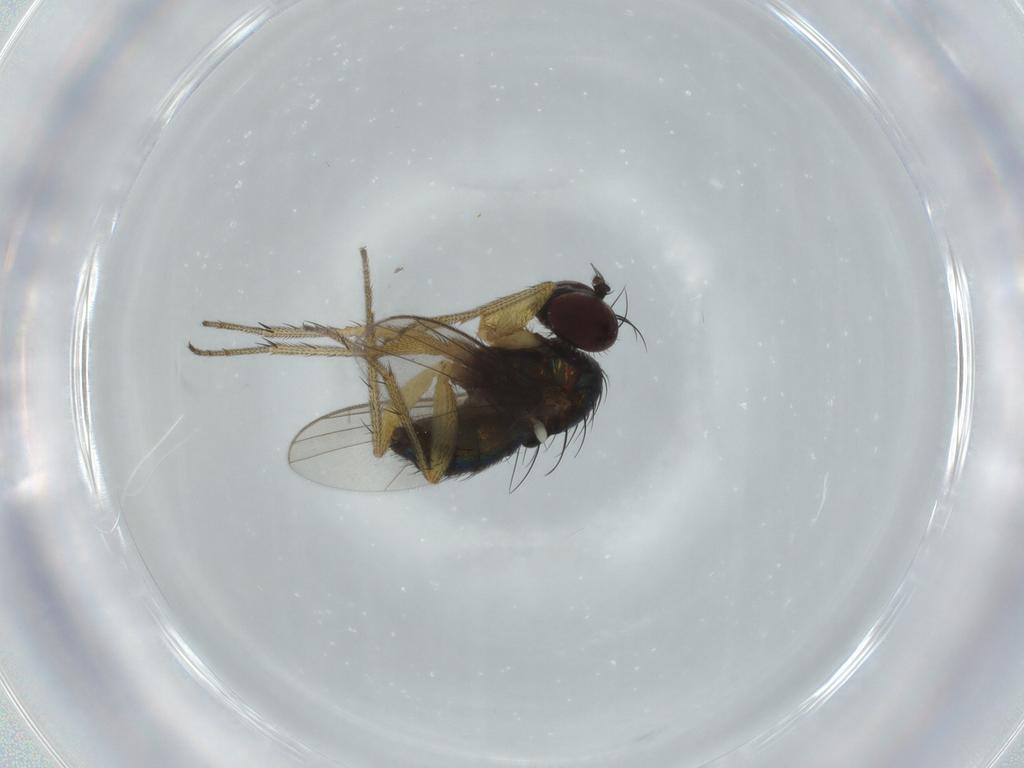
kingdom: Animalia
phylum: Arthropoda
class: Insecta
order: Diptera
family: Dolichopodidae
